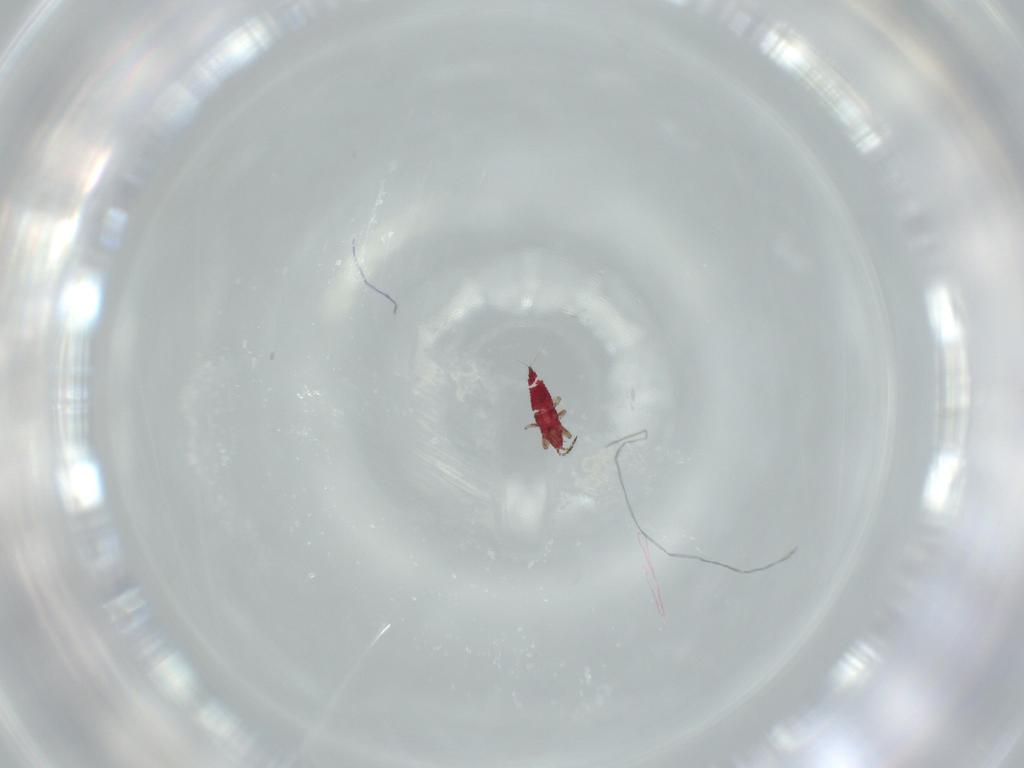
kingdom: Animalia
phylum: Arthropoda
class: Insecta
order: Thysanoptera
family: Phlaeothripidae
